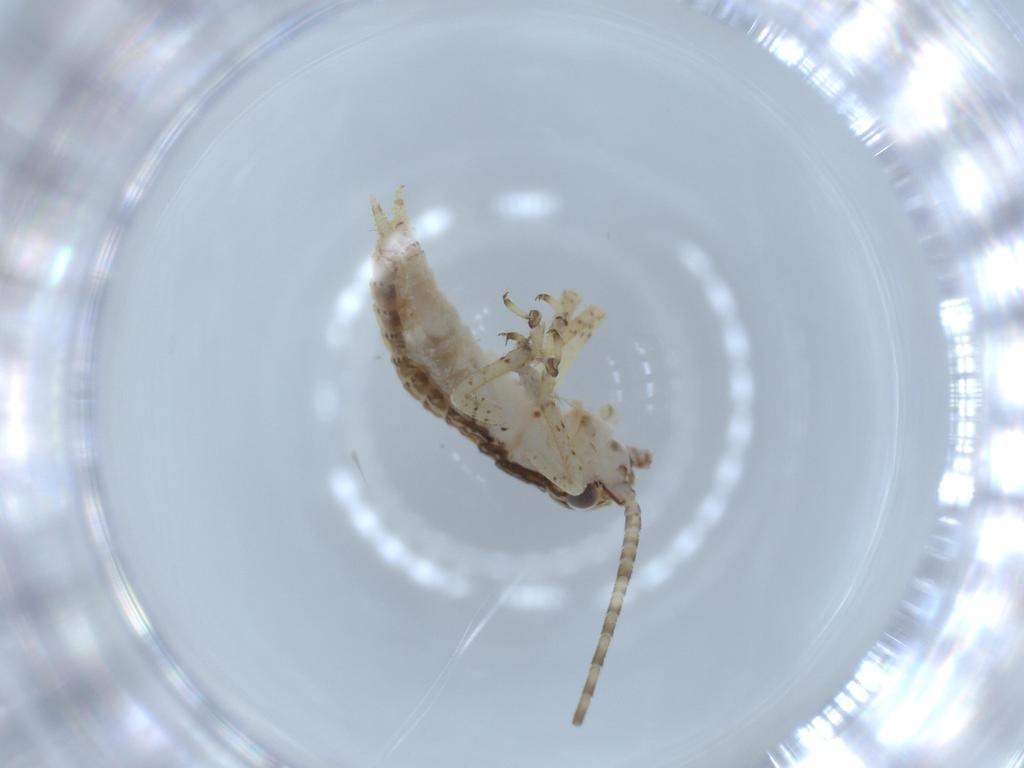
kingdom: Animalia
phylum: Arthropoda
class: Insecta
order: Orthoptera
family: Gryllidae
